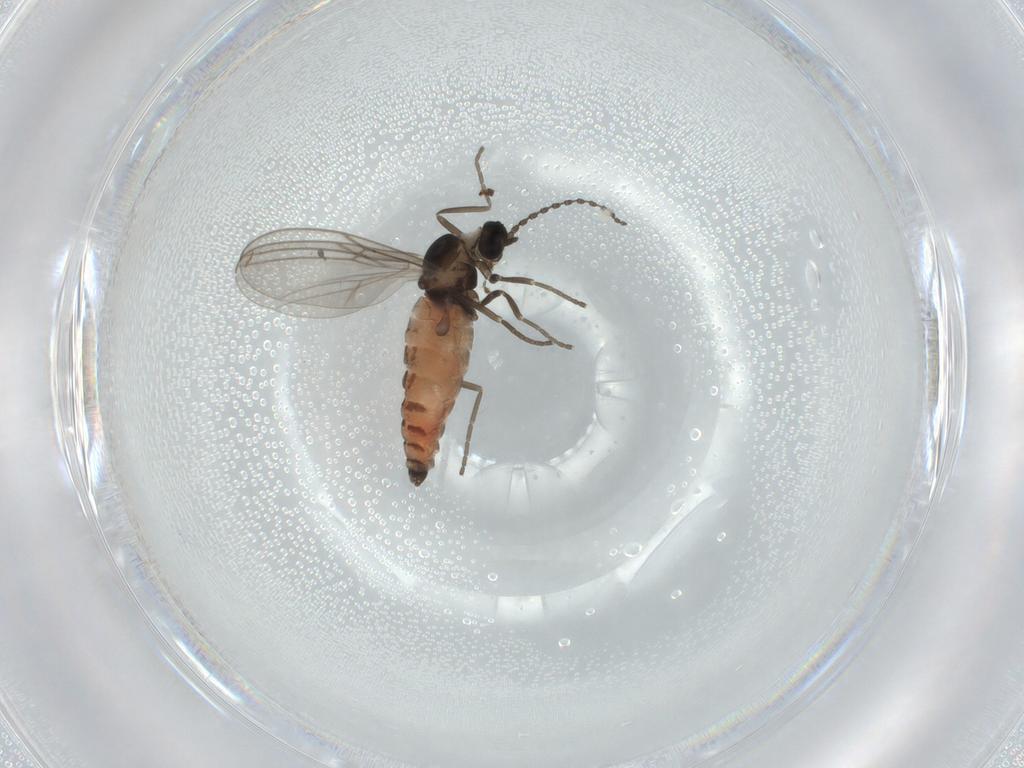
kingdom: Animalia
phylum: Arthropoda
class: Insecta
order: Diptera
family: Cecidomyiidae
